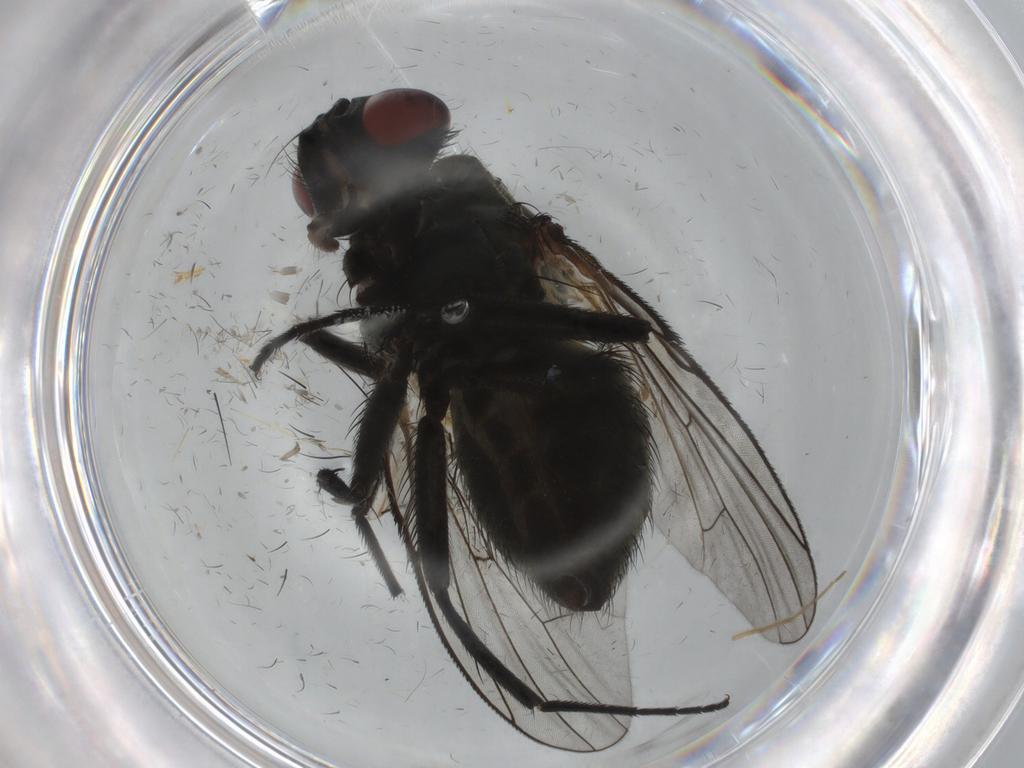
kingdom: Animalia
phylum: Arthropoda
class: Insecta
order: Diptera
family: Muscidae
